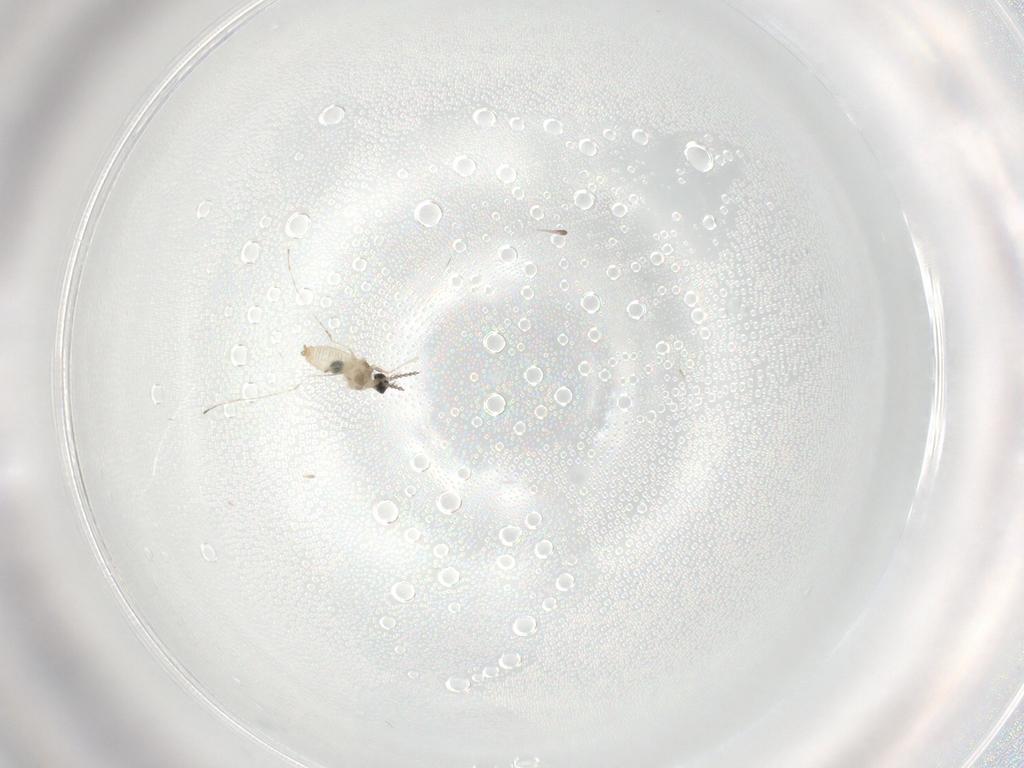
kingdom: Animalia
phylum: Arthropoda
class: Insecta
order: Diptera
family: Cecidomyiidae
